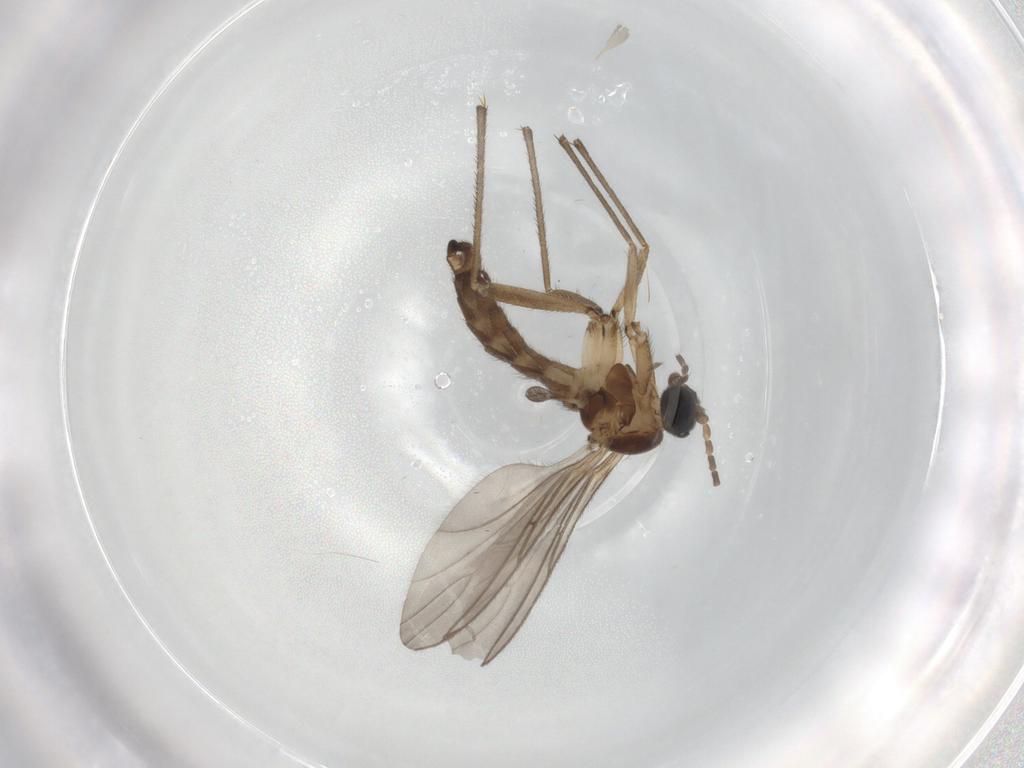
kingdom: Animalia
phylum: Arthropoda
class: Insecta
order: Diptera
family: Sciaridae
